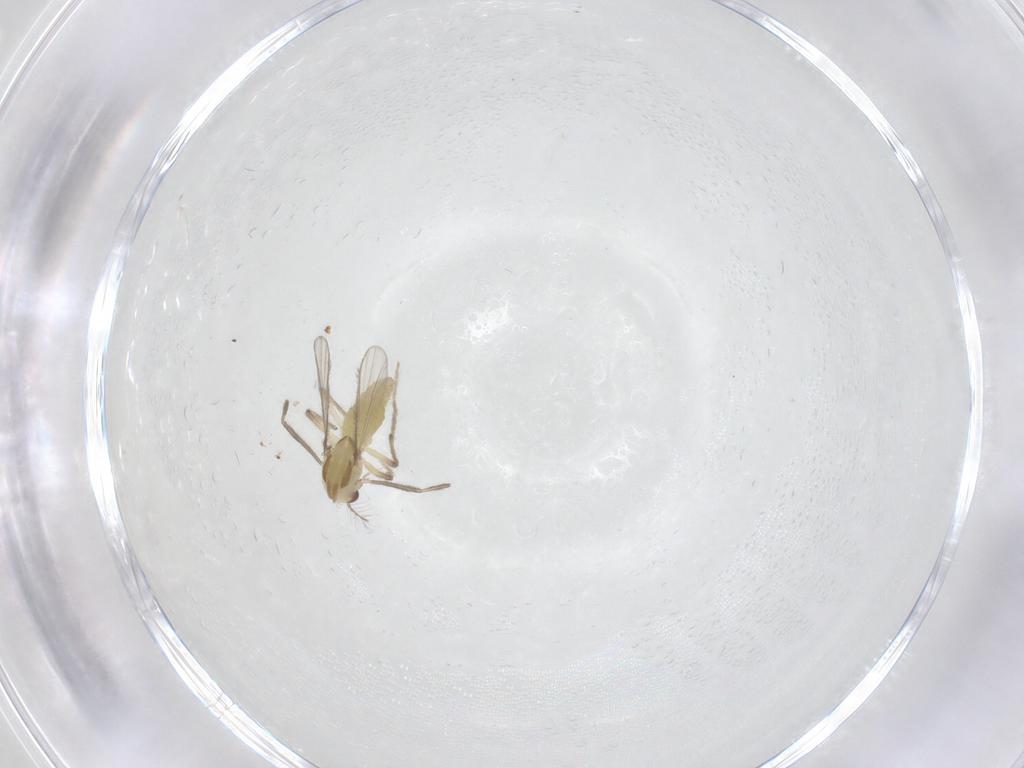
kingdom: Animalia
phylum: Arthropoda
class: Insecta
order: Diptera
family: Chironomidae
